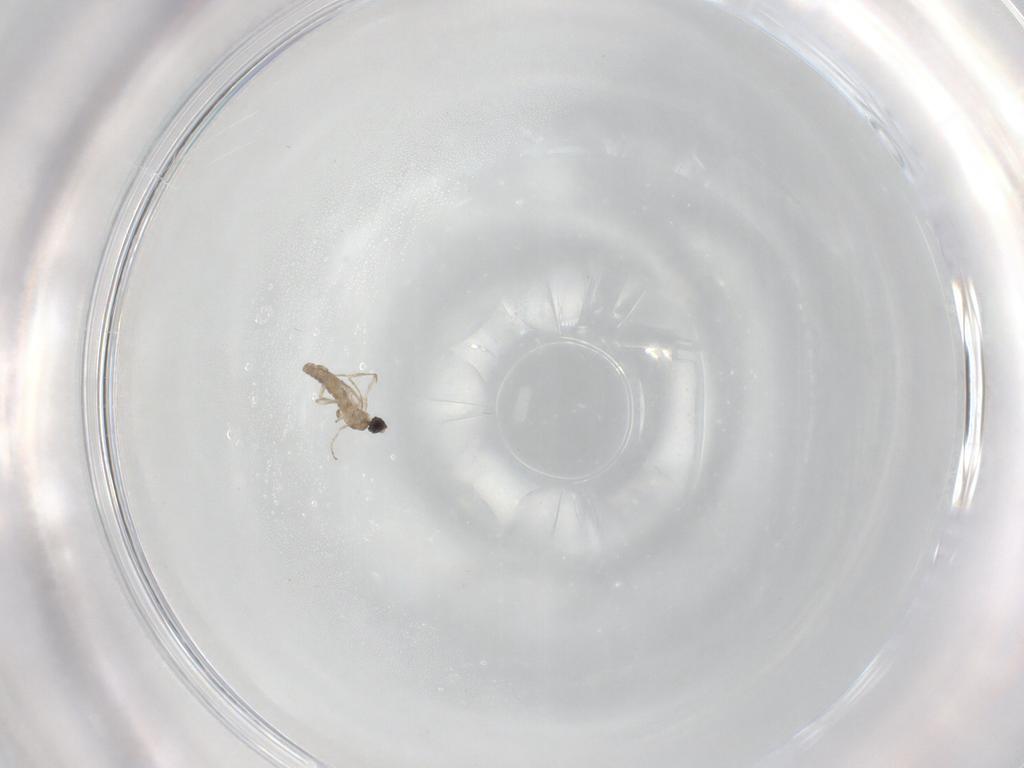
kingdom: Animalia
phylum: Arthropoda
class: Insecta
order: Diptera
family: Cecidomyiidae
